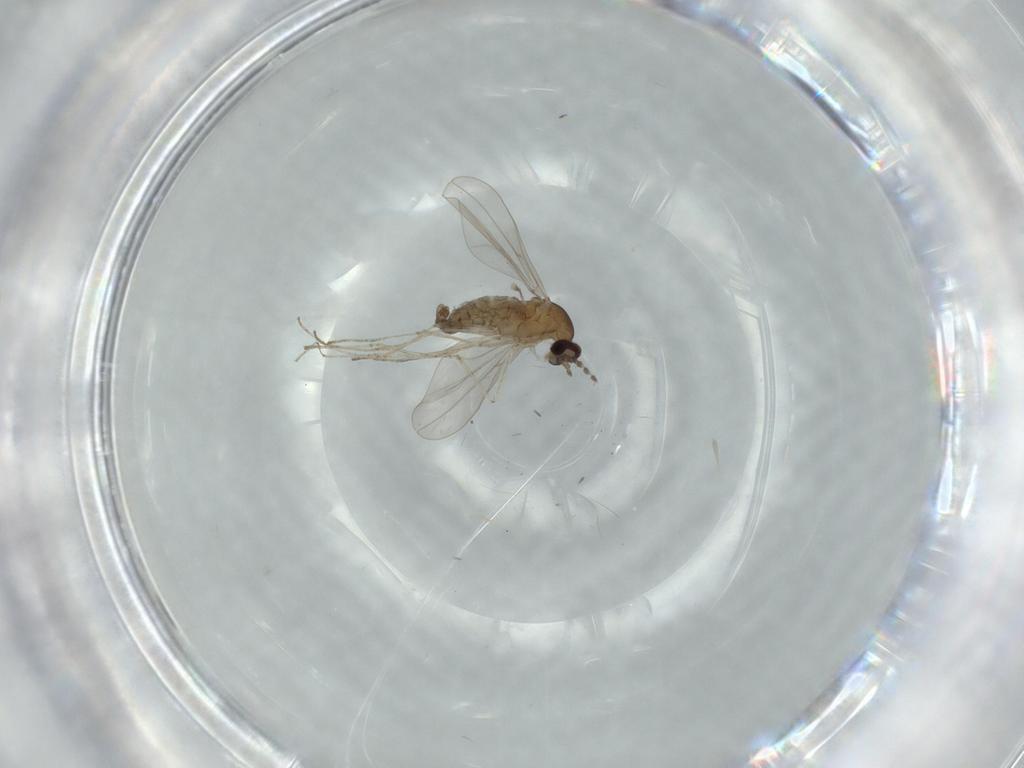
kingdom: Animalia
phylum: Arthropoda
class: Insecta
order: Diptera
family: Cecidomyiidae
